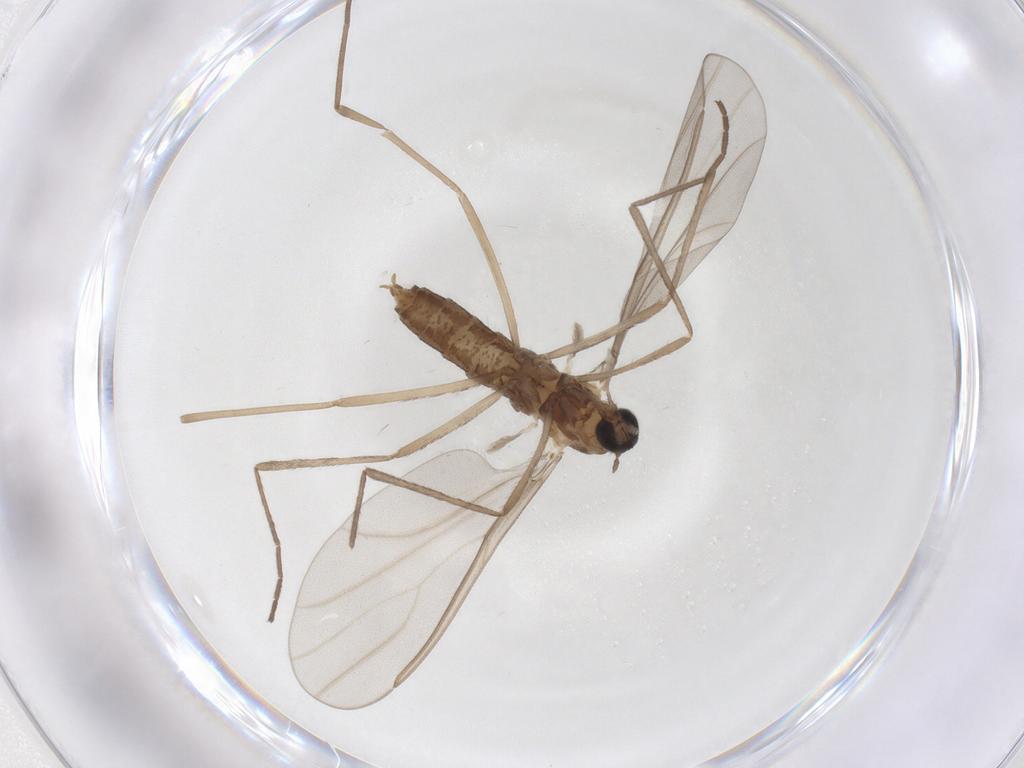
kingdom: Animalia
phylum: Arthropoda
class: Insecta
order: Diptera
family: Cecidomyiidae
